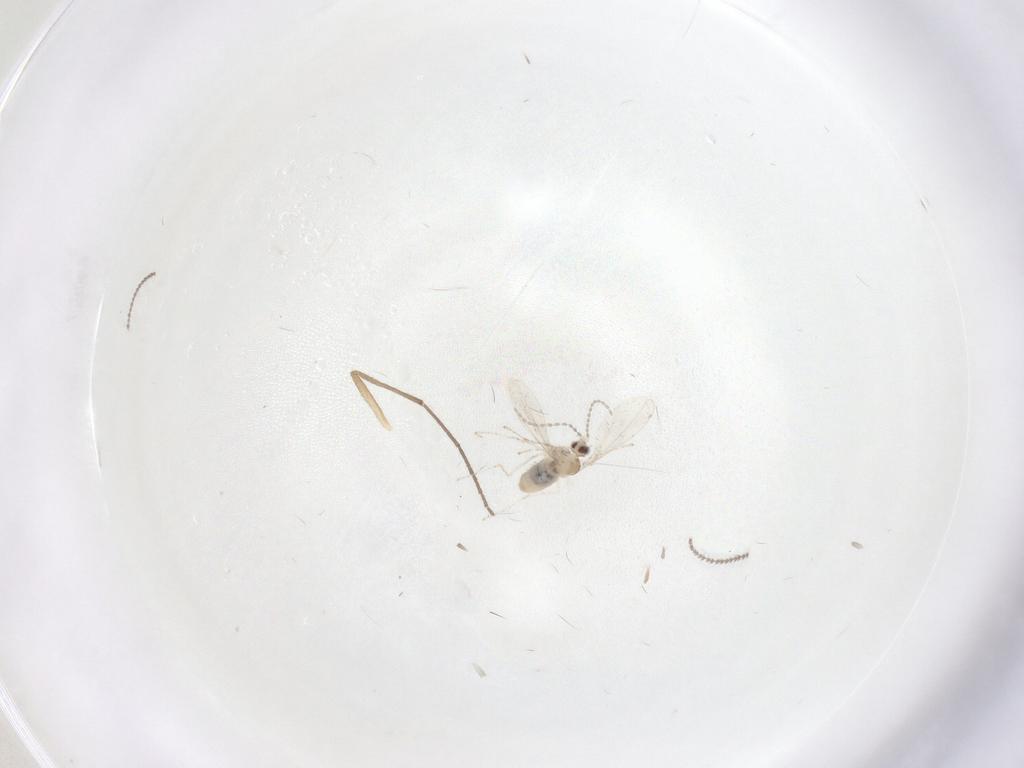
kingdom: Animalia
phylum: Arthropoda
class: Insecta
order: Diptera
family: Cecidomyiidae
